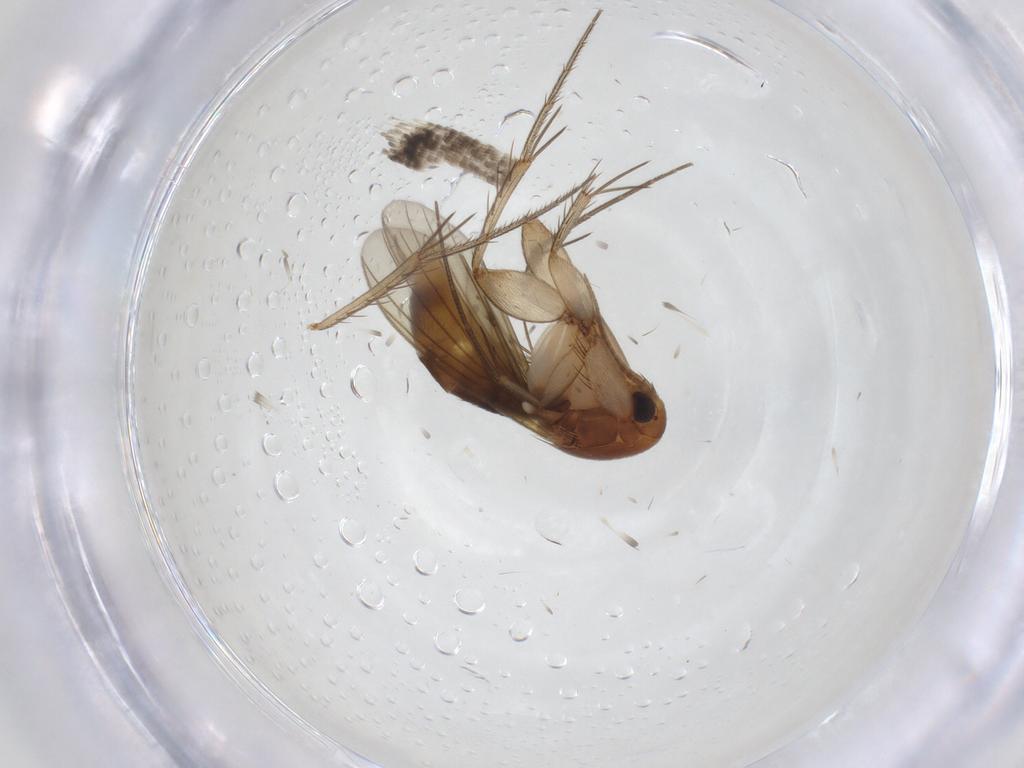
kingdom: Animalia
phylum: Arthropoda
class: Insecta
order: Diptera
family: Mycetophilidae
